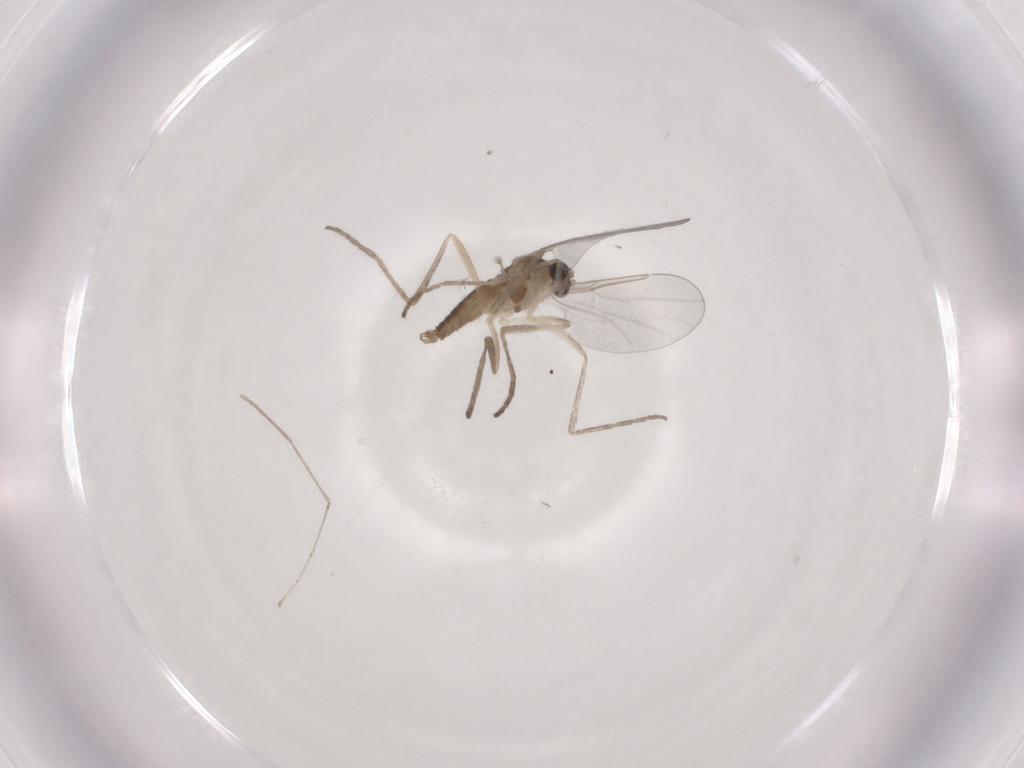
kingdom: Animalia
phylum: Arthropoda
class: Insecta
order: Diptera
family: Cecidomyiidae
